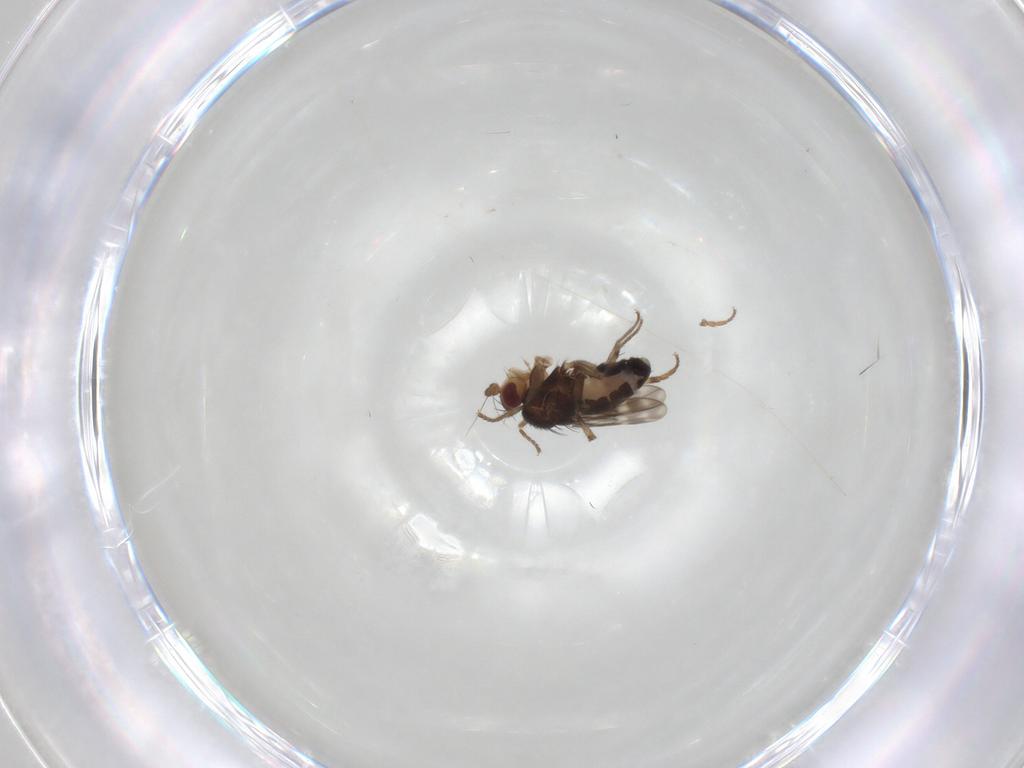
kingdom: Animalia
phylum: Arthropoda
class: Insecta
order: Diptera
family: Sphaeroceridae
